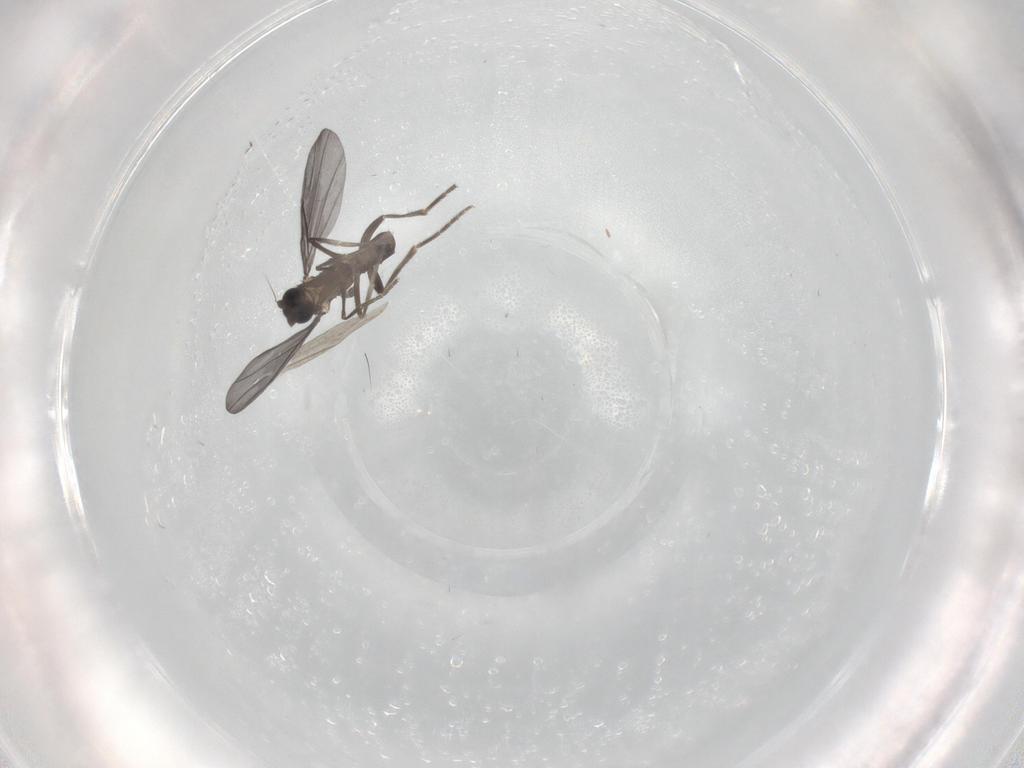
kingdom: Animalia
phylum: Arthropoda
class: Insecta
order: Diptera
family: Phoridae
